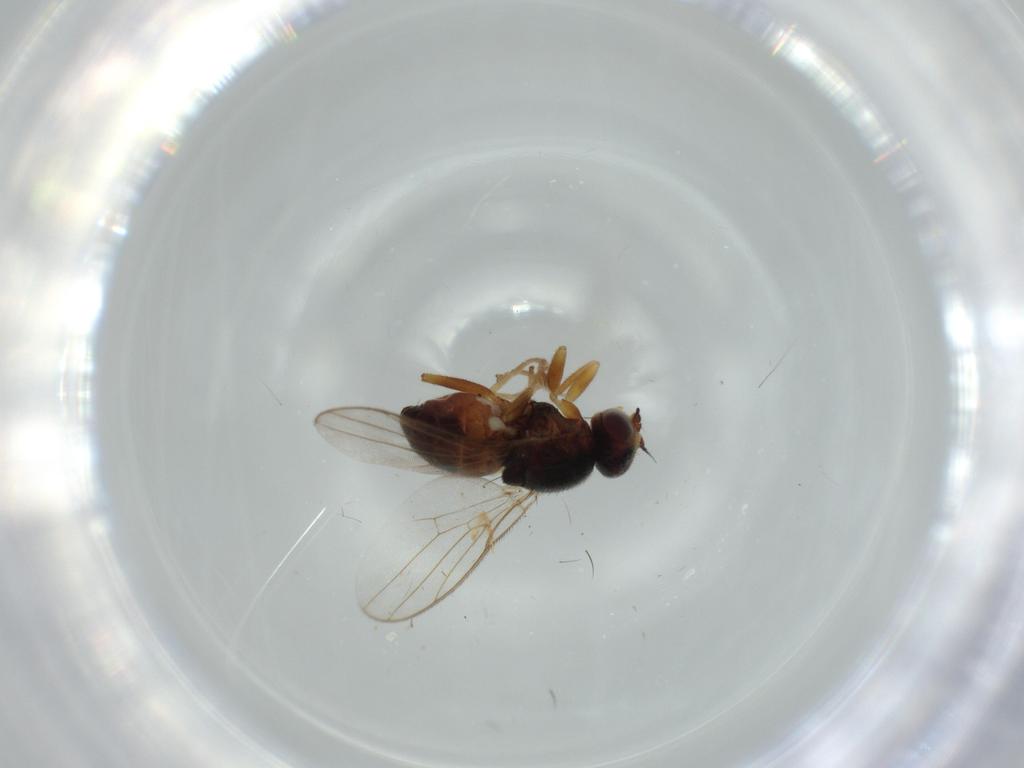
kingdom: Animalia
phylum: Arthropoda
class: Insecta
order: Diptera
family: Chloropidae
